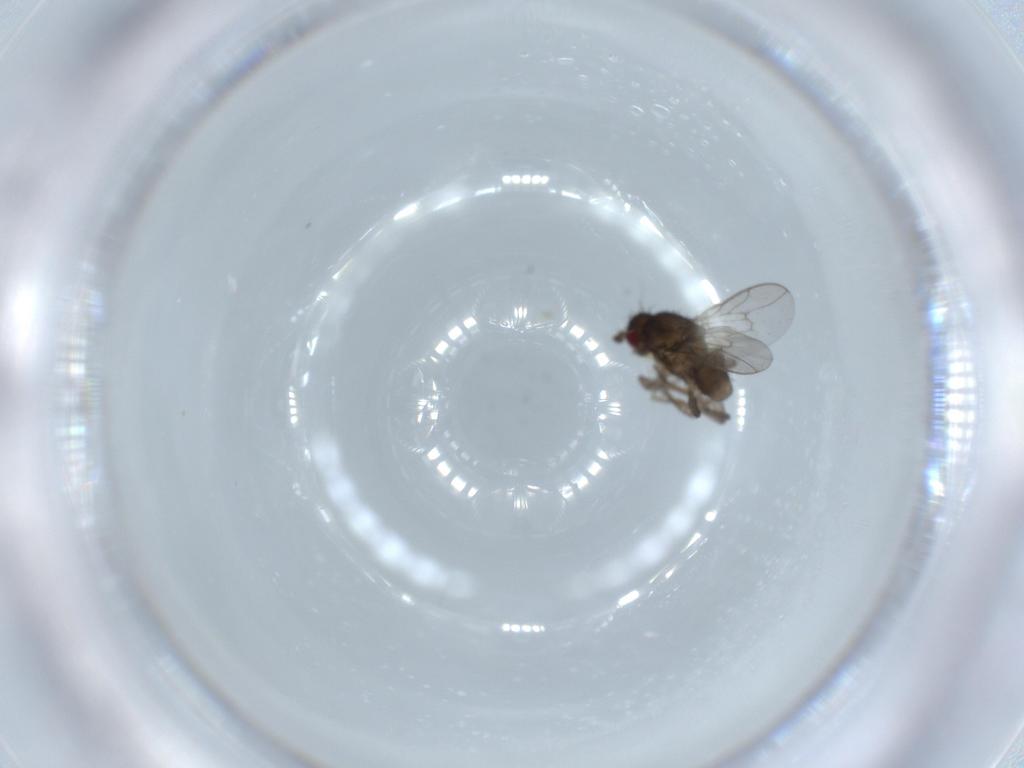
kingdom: Animalia
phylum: Arthropoda
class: Insecta
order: Diptera
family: Sphaeroceridae
